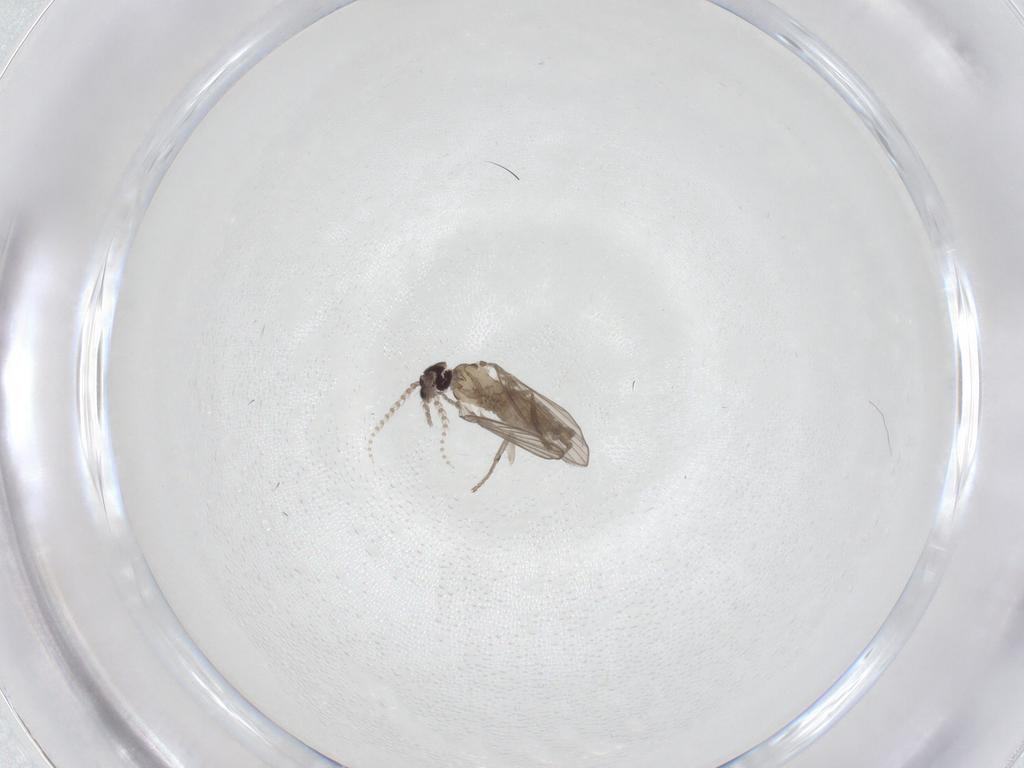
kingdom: Animalia
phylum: Arthropoda
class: Insecta
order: Diptera
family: Psychodidae
